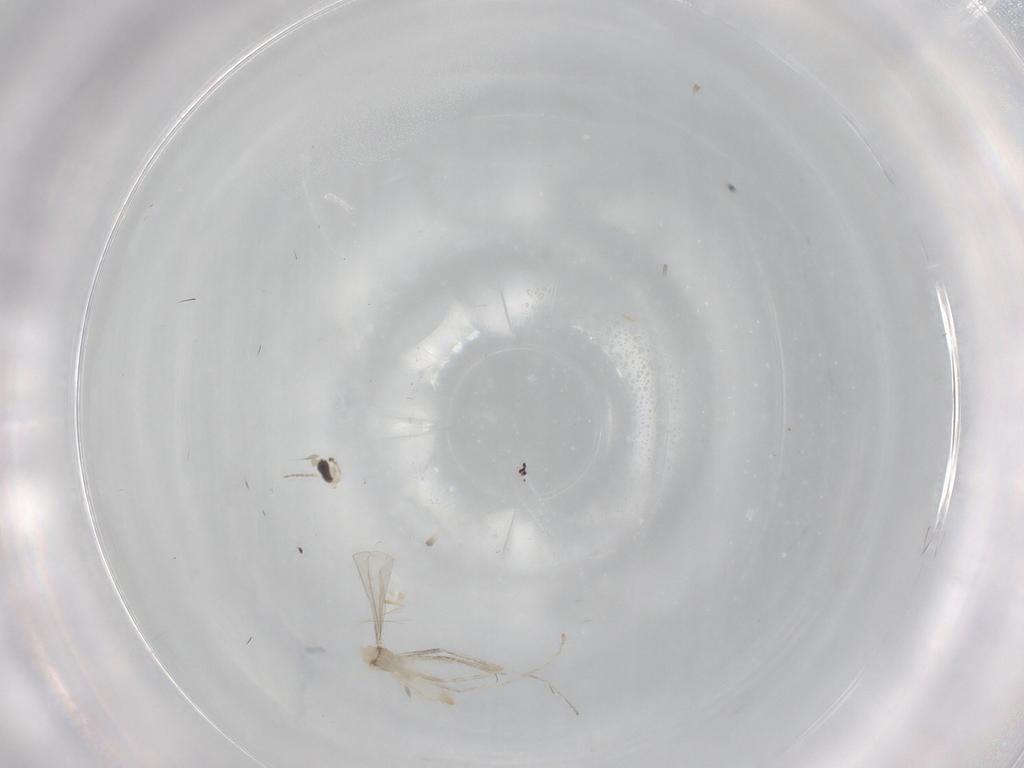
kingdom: Animalia
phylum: Arthropoda
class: Insecta
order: Diptera
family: Cecidomyiidae
